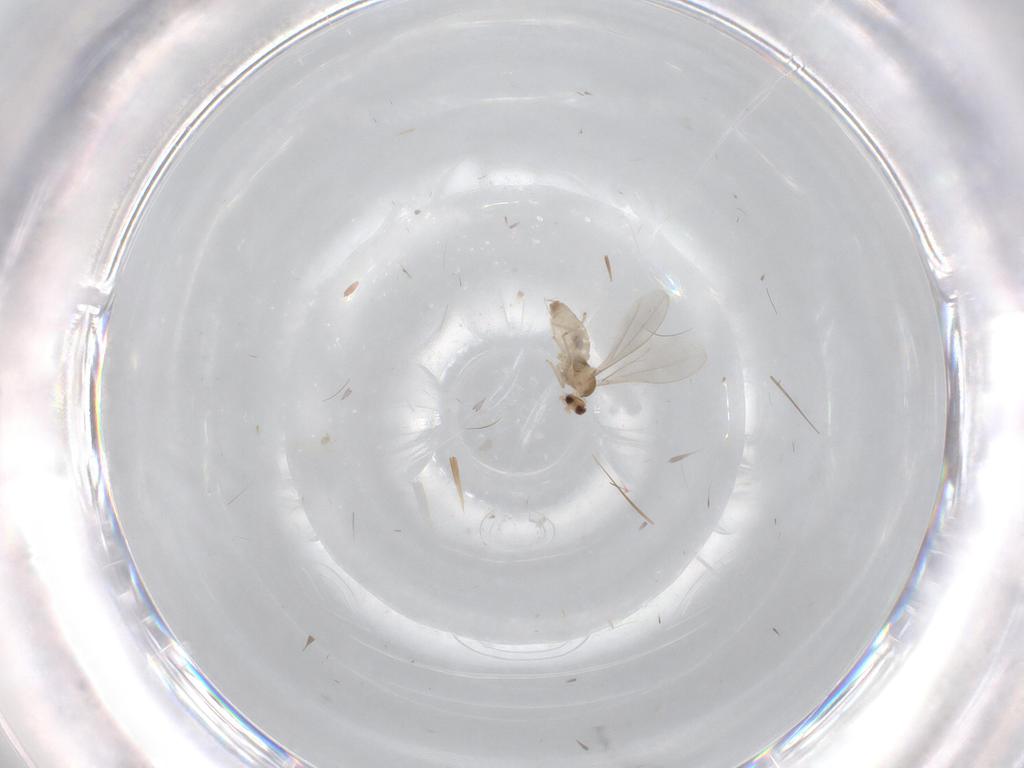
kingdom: Animalia
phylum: Arthropoda
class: Insecta
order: Diptera
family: Cecidomyiidae
